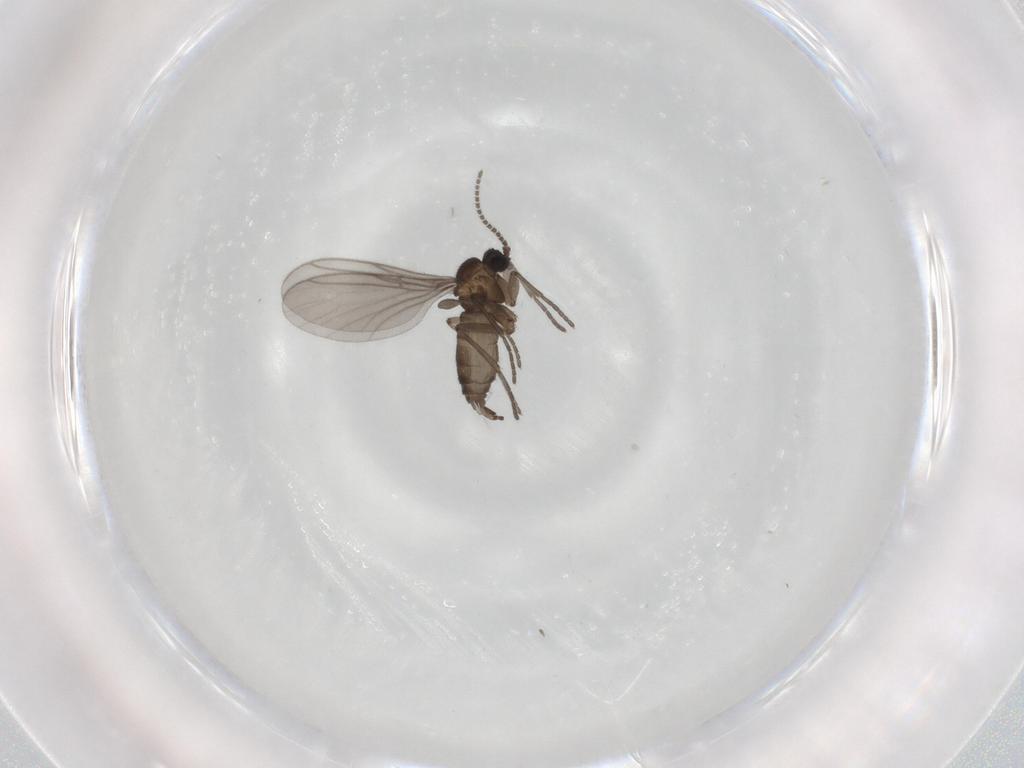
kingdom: Animalia
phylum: Arthropoda
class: Insecta
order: Diptera
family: Sciaridae
